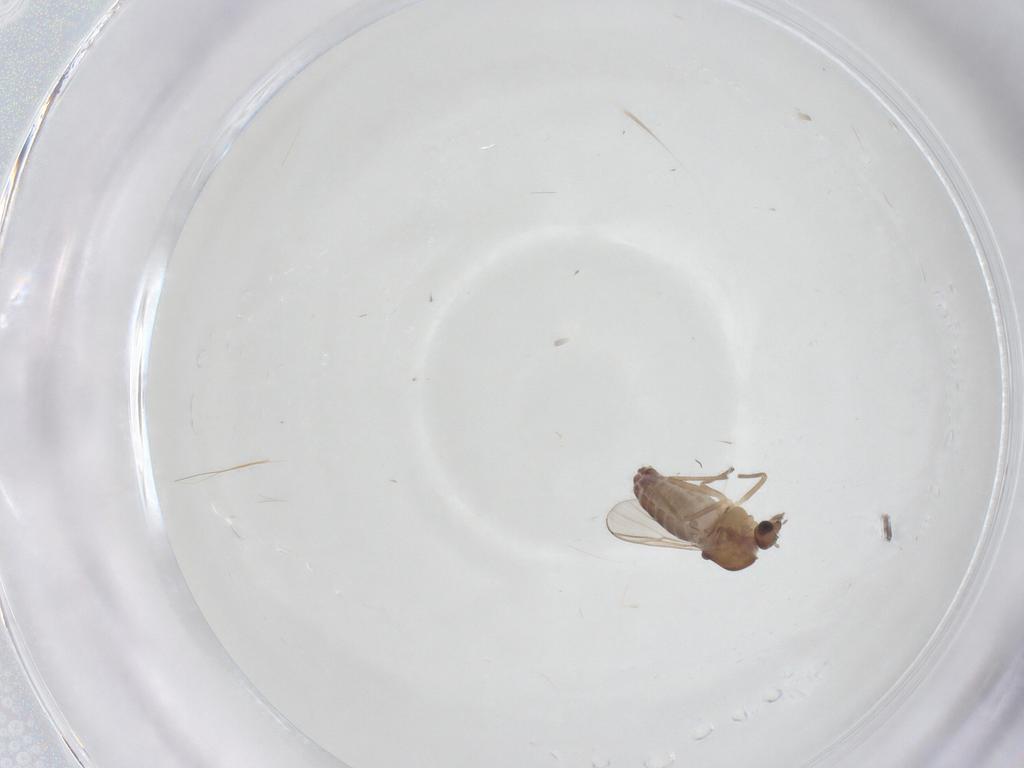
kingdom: Animalia
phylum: Arthropoda
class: Insecta
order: Diptera
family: Chironomidae
